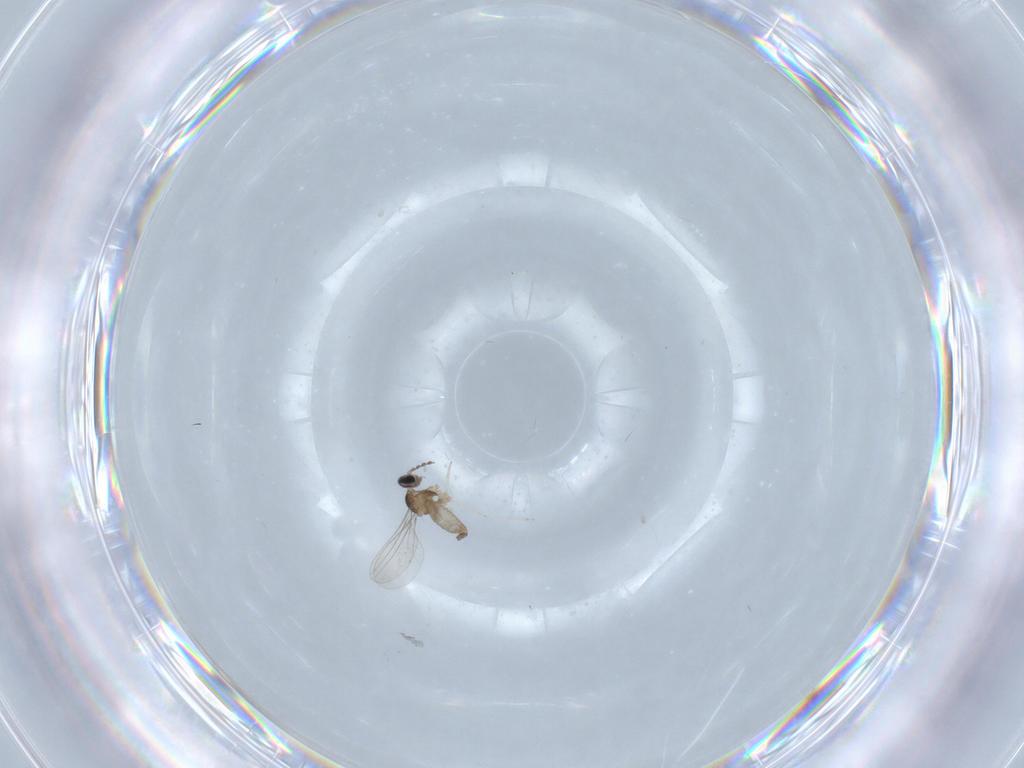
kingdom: Animalia
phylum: Arthropoda
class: Insecta
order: Diptera
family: Cecidomyiidae
